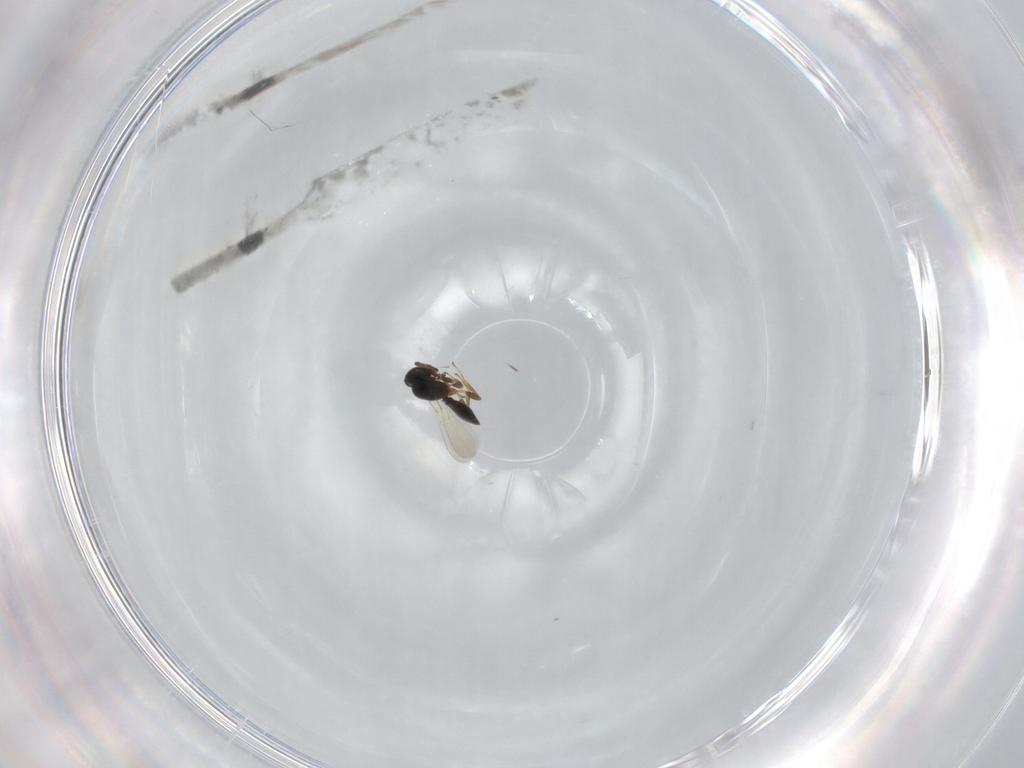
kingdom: Animalia
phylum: Arthropoda
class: Insecta
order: Hymenoptera
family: Platygastridae
